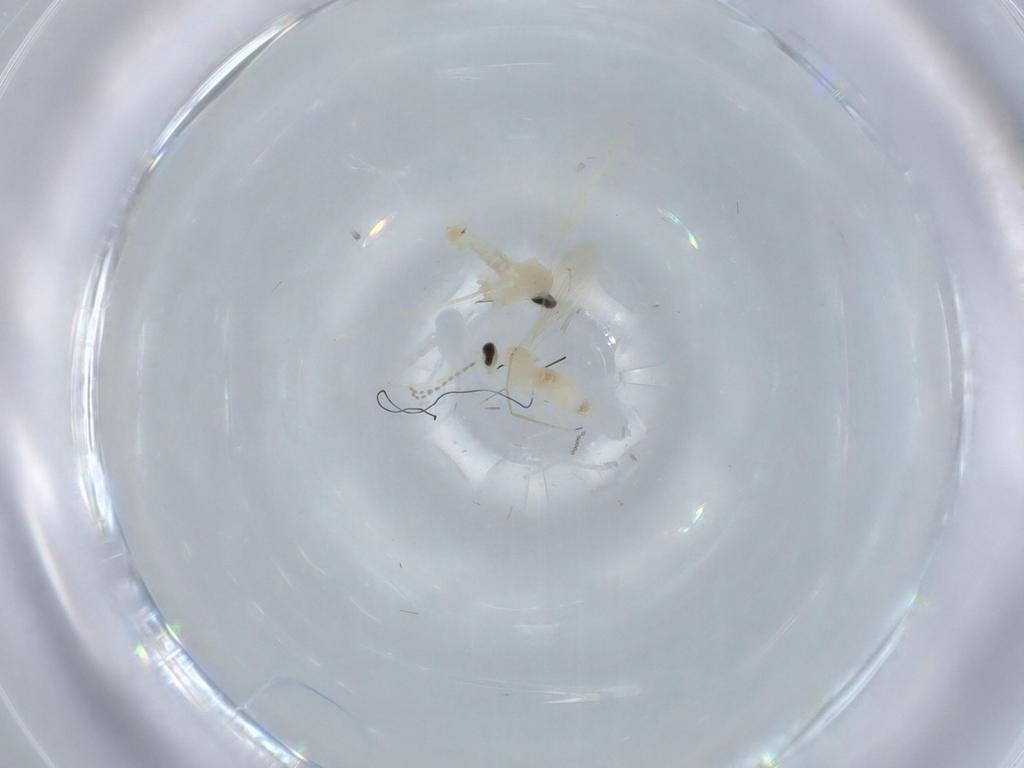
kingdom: Animalia
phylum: Arthropoda
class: Insecta
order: Diptera
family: Cecidomyiidae
